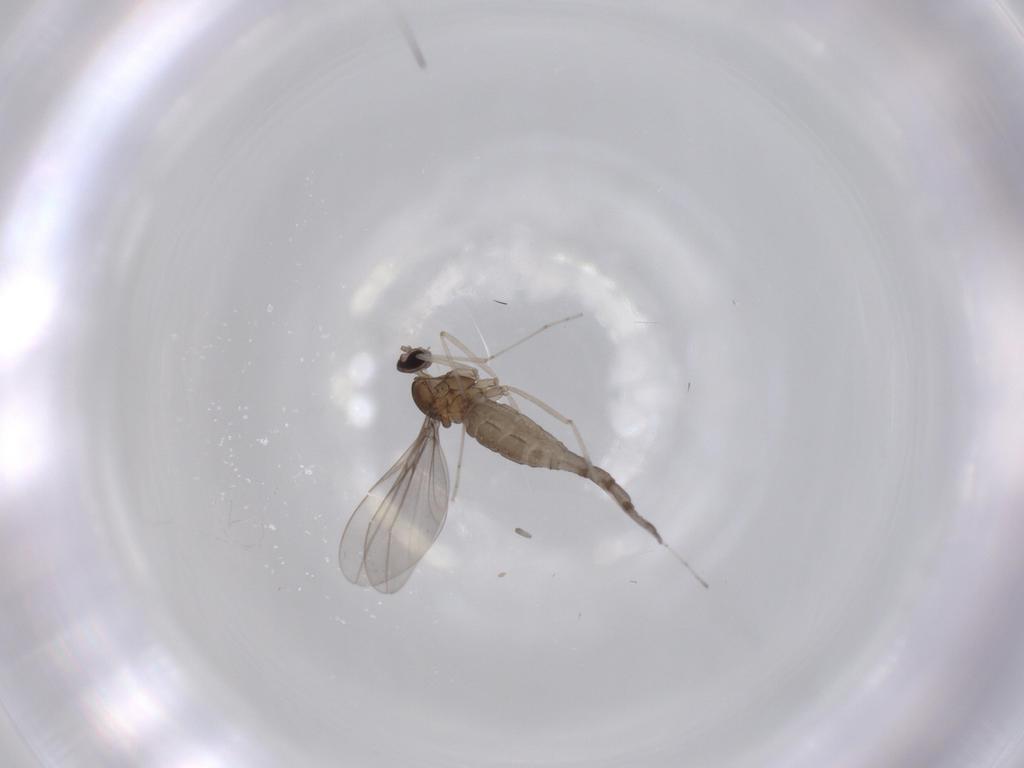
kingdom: Animalia
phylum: Arthropoda
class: Insecta
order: Diptera
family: Cecidomyiidae
